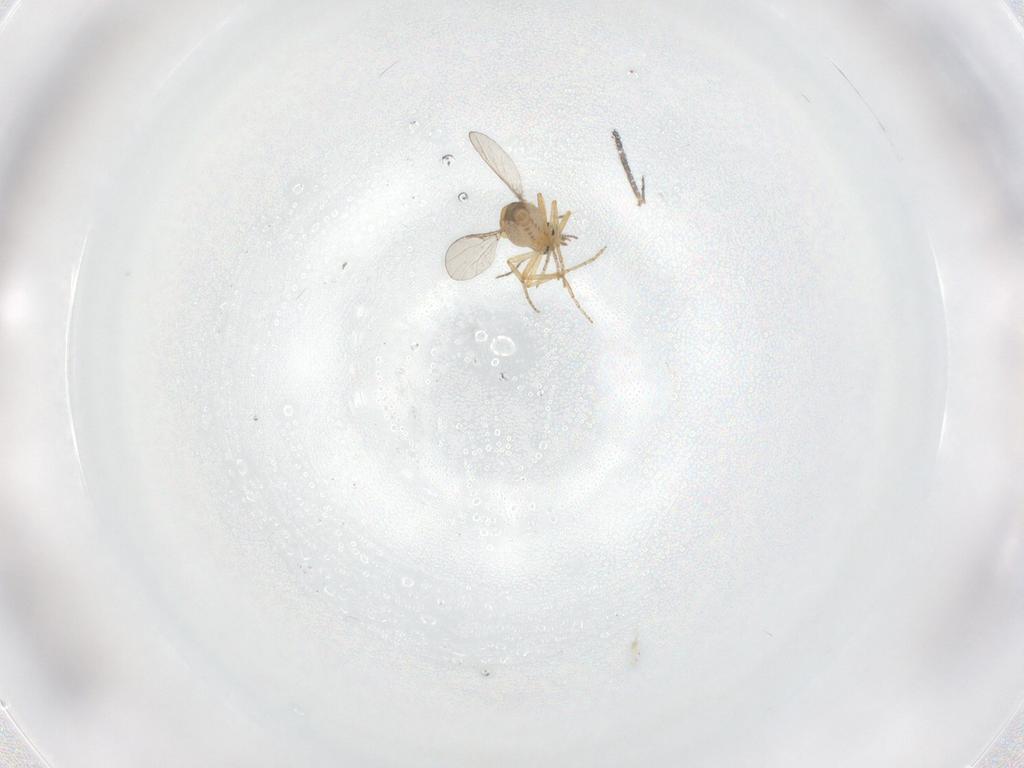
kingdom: Animalia
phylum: Arthropoda
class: Insecta
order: Diptera
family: Ceratopogonidae
